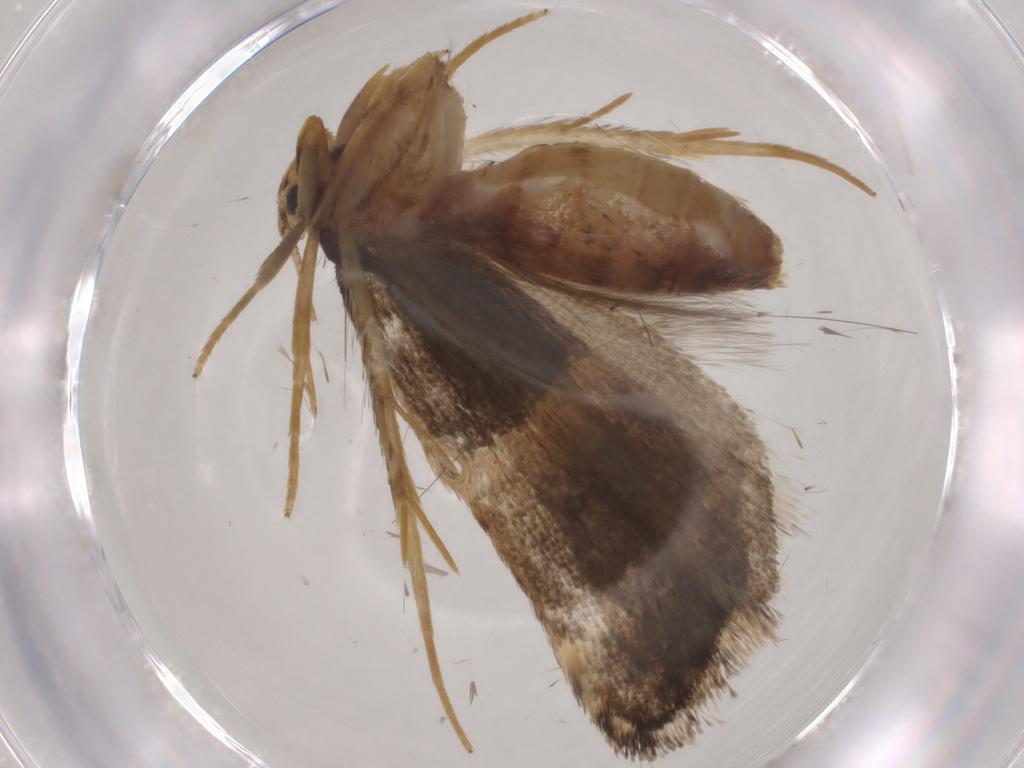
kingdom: Animalia
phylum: Arthropoda
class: Insecta
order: Lepidoptera
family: Lecithoceridae
